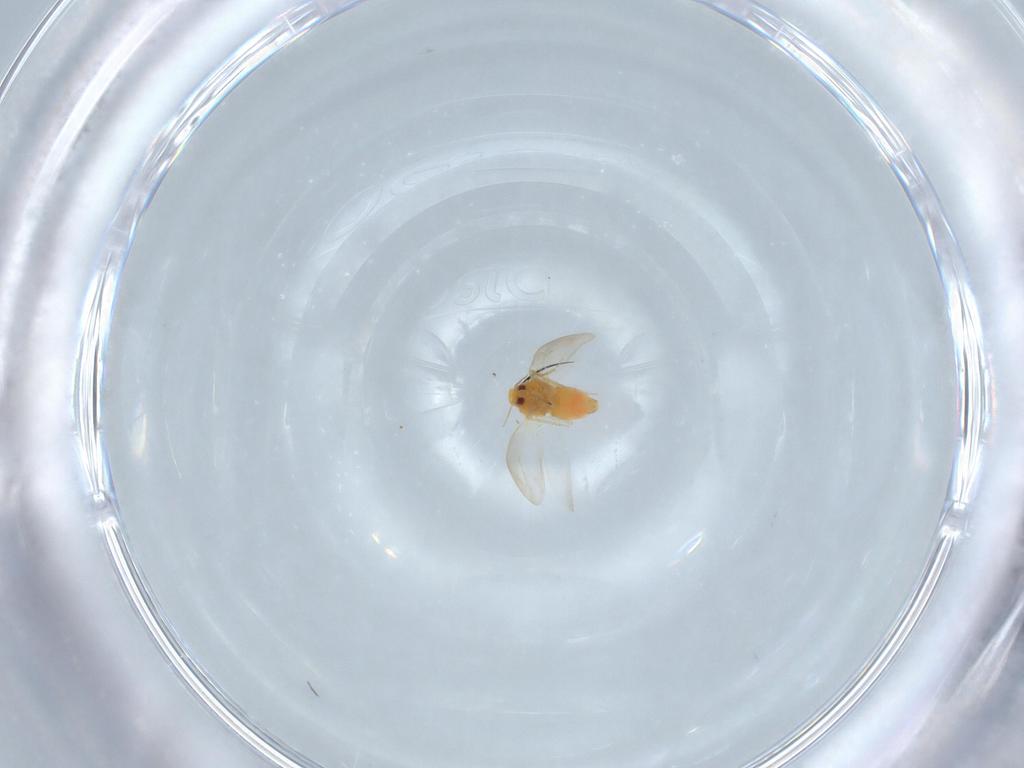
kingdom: Animalia
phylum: Arthropoda
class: Insecta
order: Hemiptera
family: Aleyrodidae
